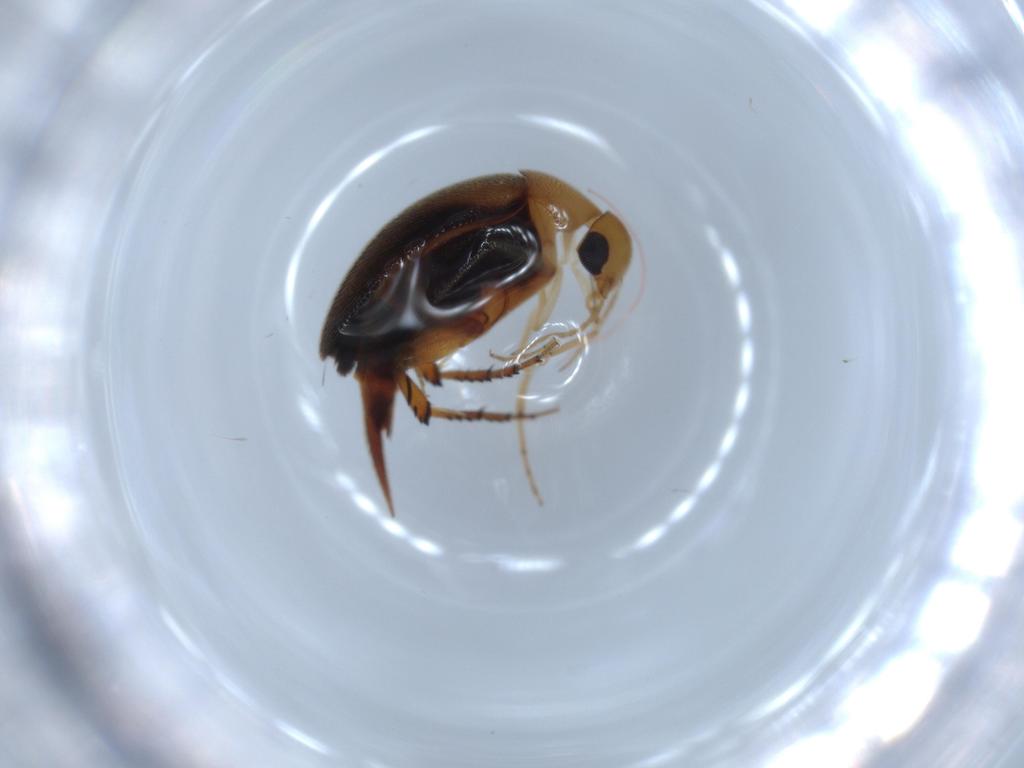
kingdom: Animalia
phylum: Arthropoda
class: Insecta
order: Coleoptera
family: Mordellidae
